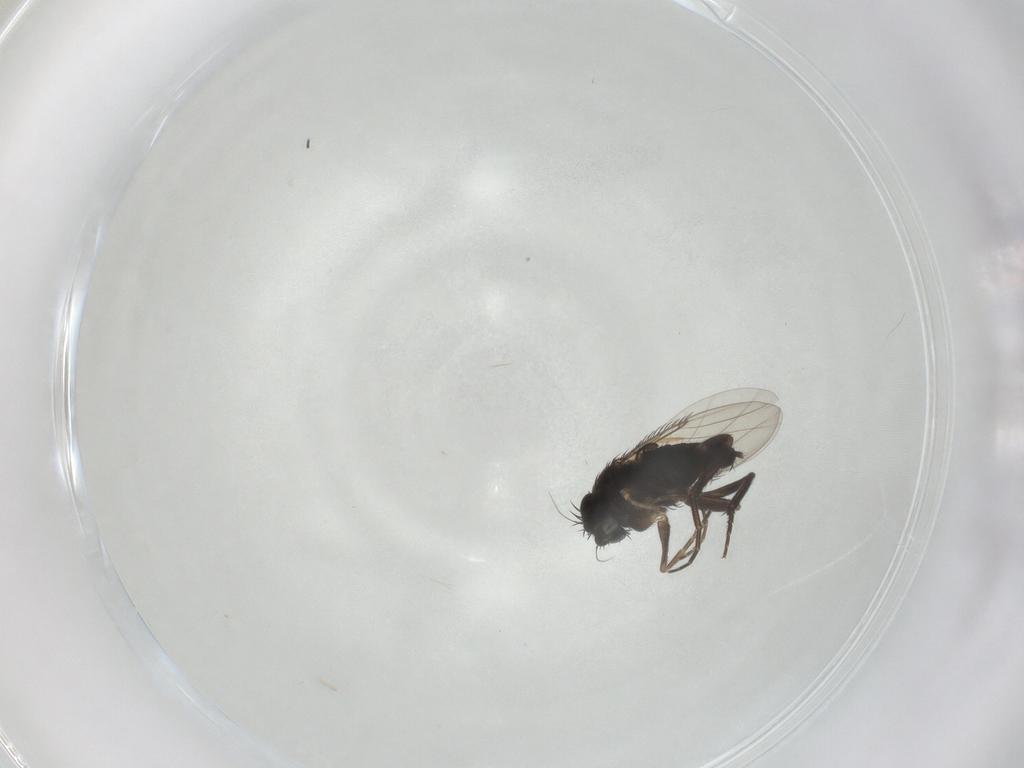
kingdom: Animalia
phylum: Arthropoda
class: Insecta
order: Diptera
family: Phoridae
